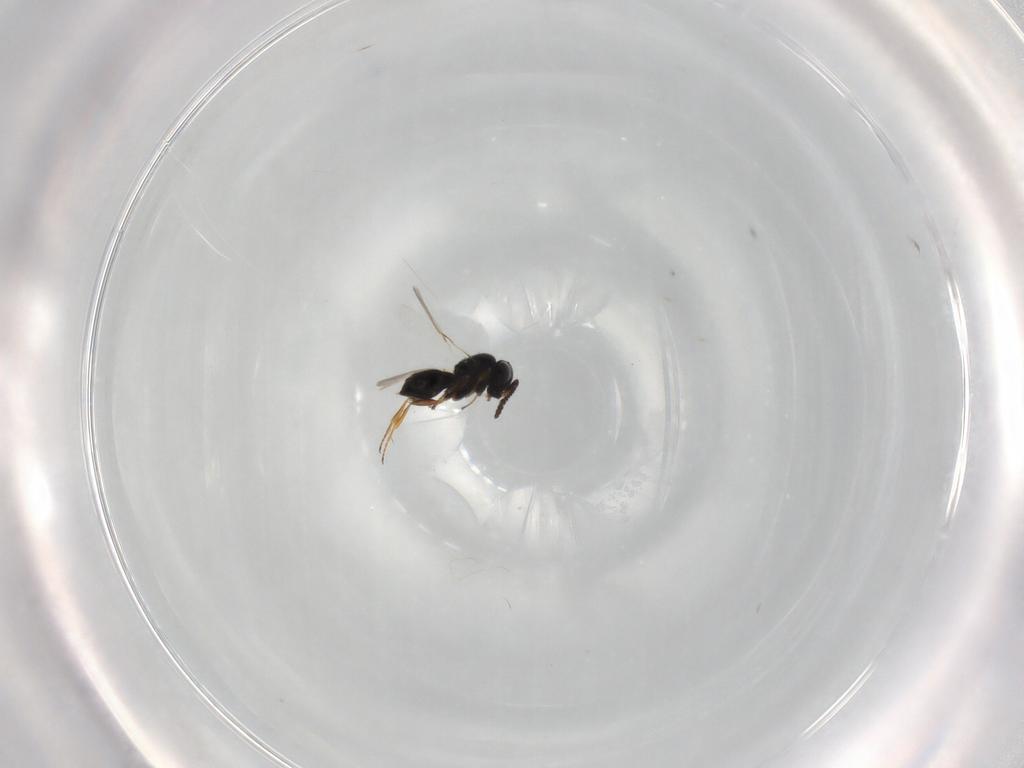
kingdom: Animalia
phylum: Arthropoda
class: Insecta
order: Hymenoptera
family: Scelionidae
